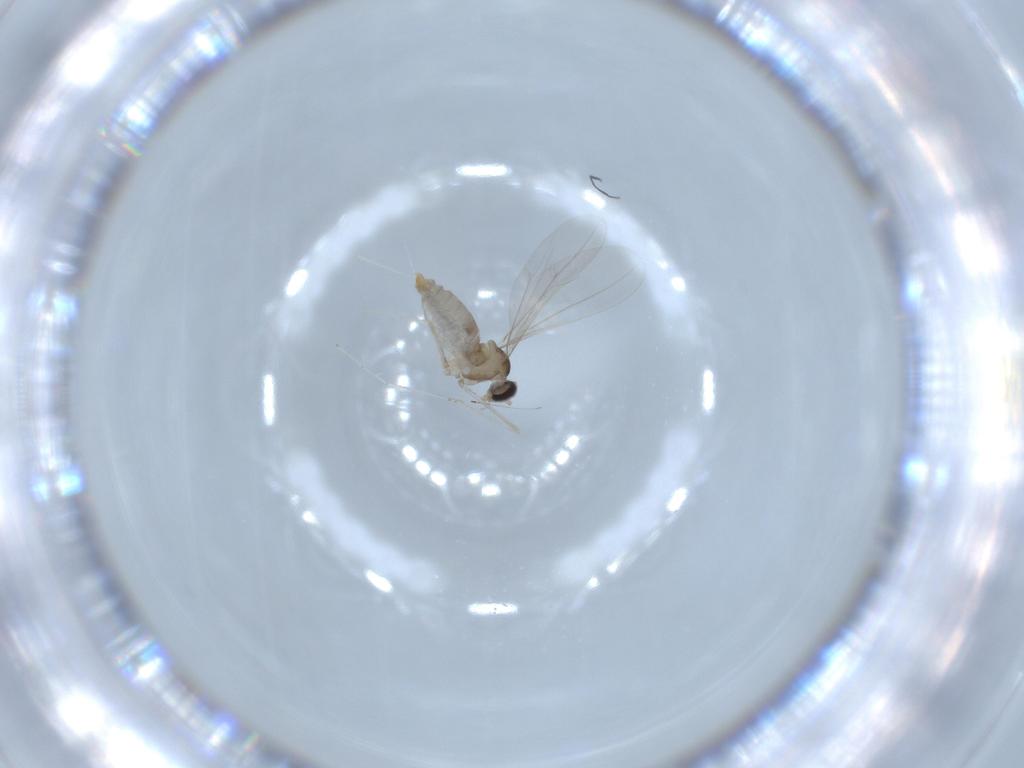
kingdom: Animalia
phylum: Arthropoda
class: Insecta
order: Diptera
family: Cecidomyiidae
